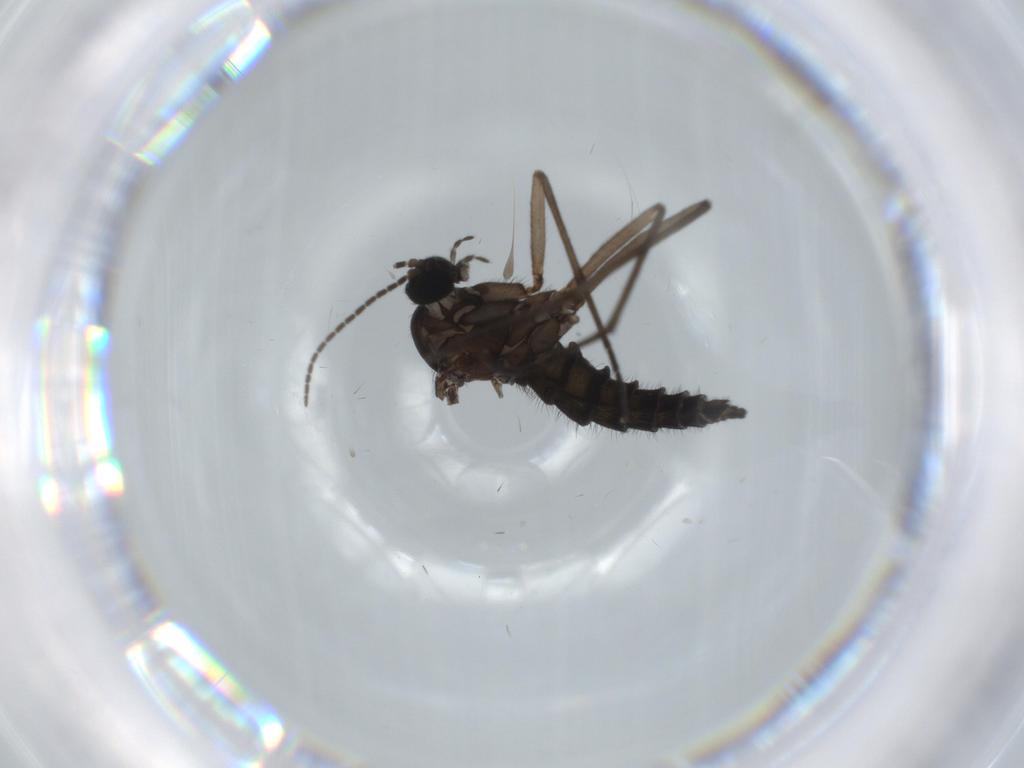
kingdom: Animalia
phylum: Arthropoda
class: Insecta
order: Diptera
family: Sciaridae
